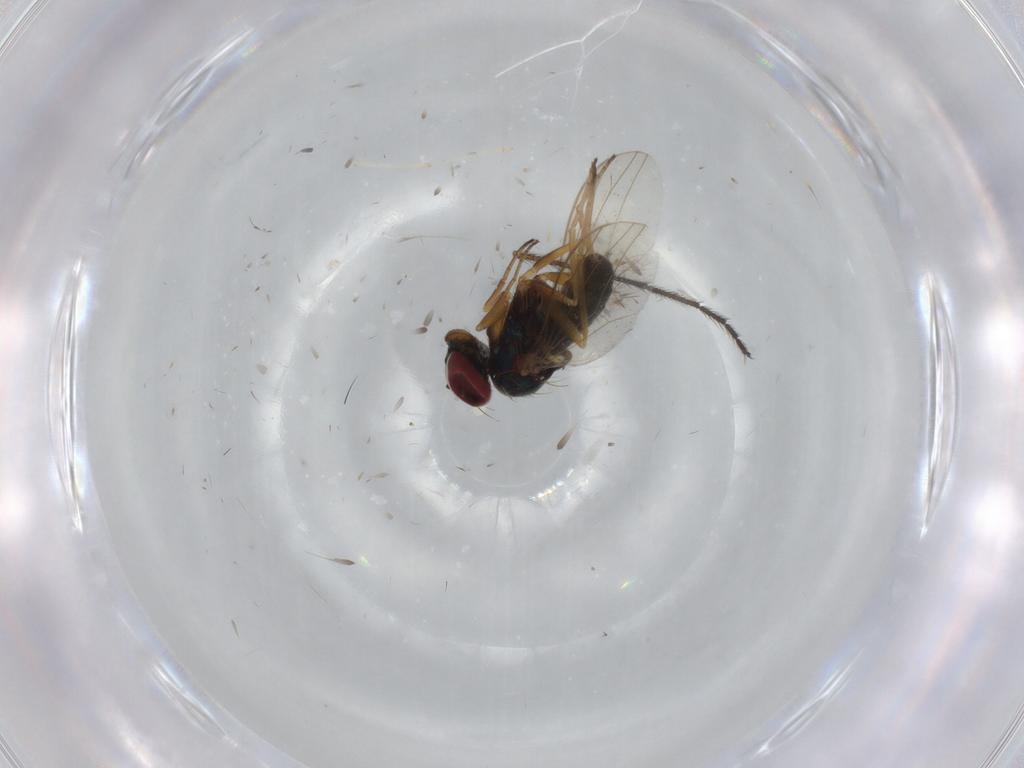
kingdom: Animalia
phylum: Arthropoda
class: Insecta
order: Diptera
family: Dolichopodidae
